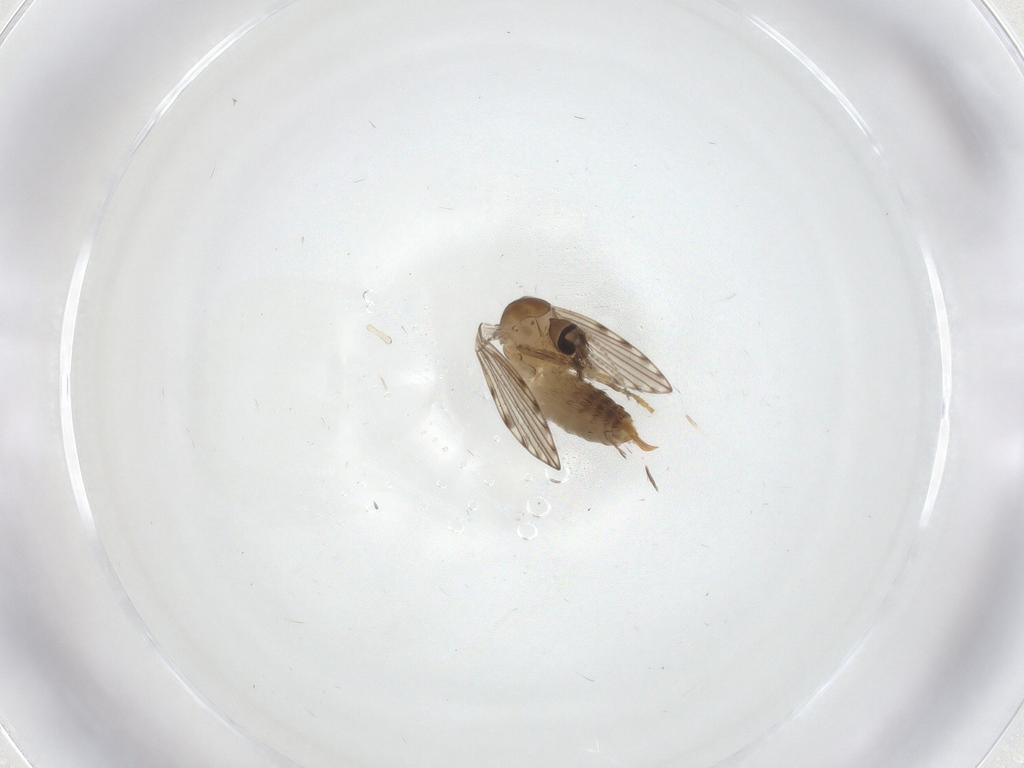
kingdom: Animalia
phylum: Arthropoda
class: Insecta
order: Diptera
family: Psychodidae
